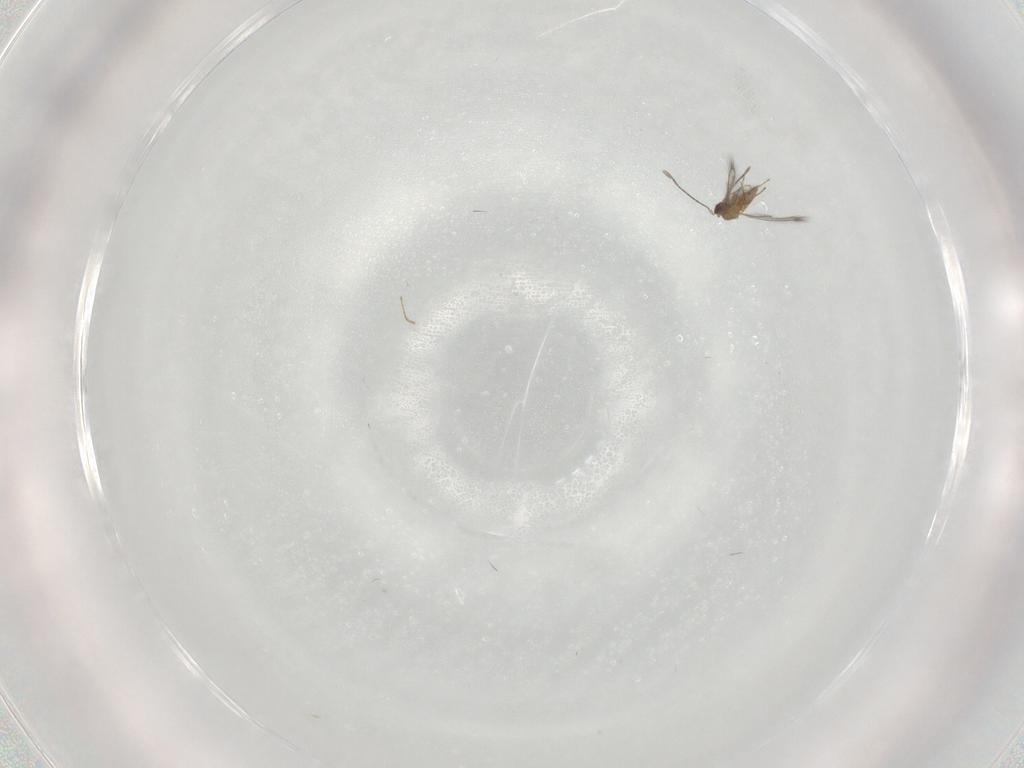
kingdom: Animalia
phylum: Arthropoda
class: Insecta
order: Hymenoptera
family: Mymaridae
